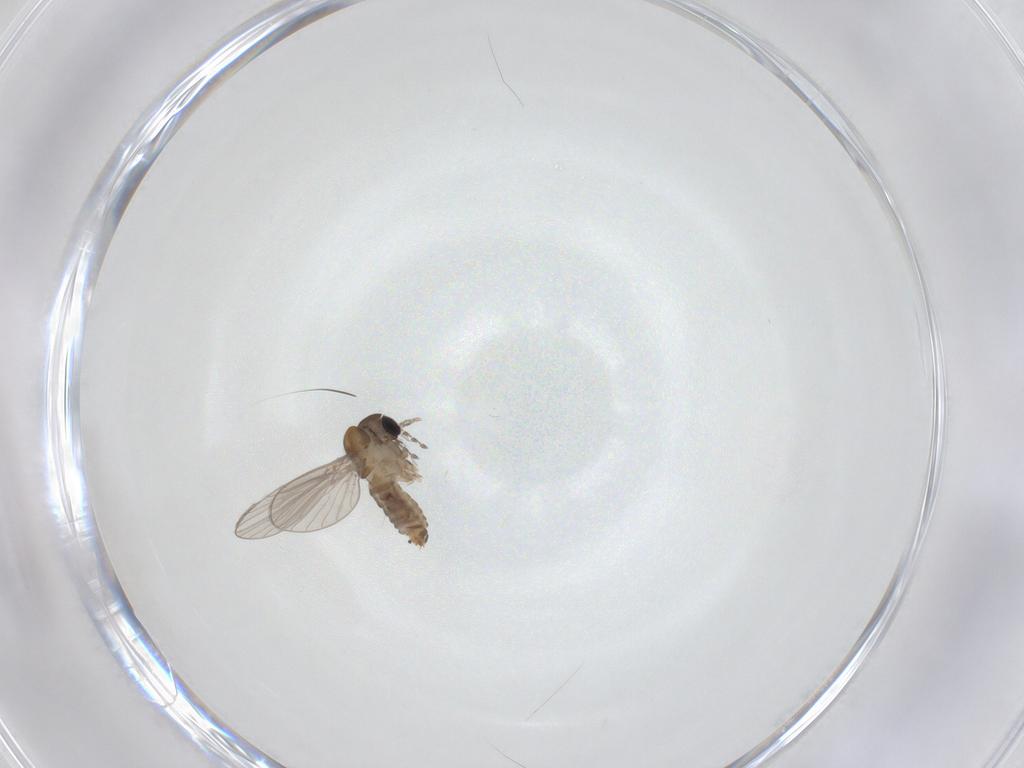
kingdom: Animalia
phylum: Arthropoda
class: Insecta
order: Diptera
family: Psychodidae
